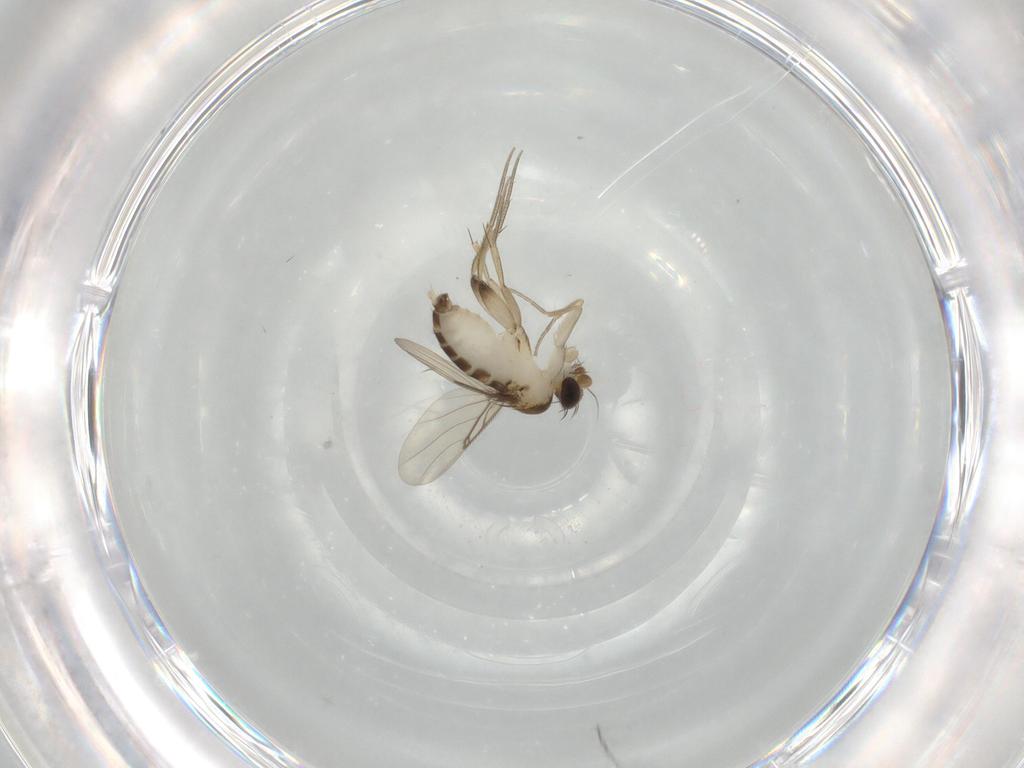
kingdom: Animalia
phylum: Arthropoda
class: Insecta
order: Diptera
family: Phoridae
